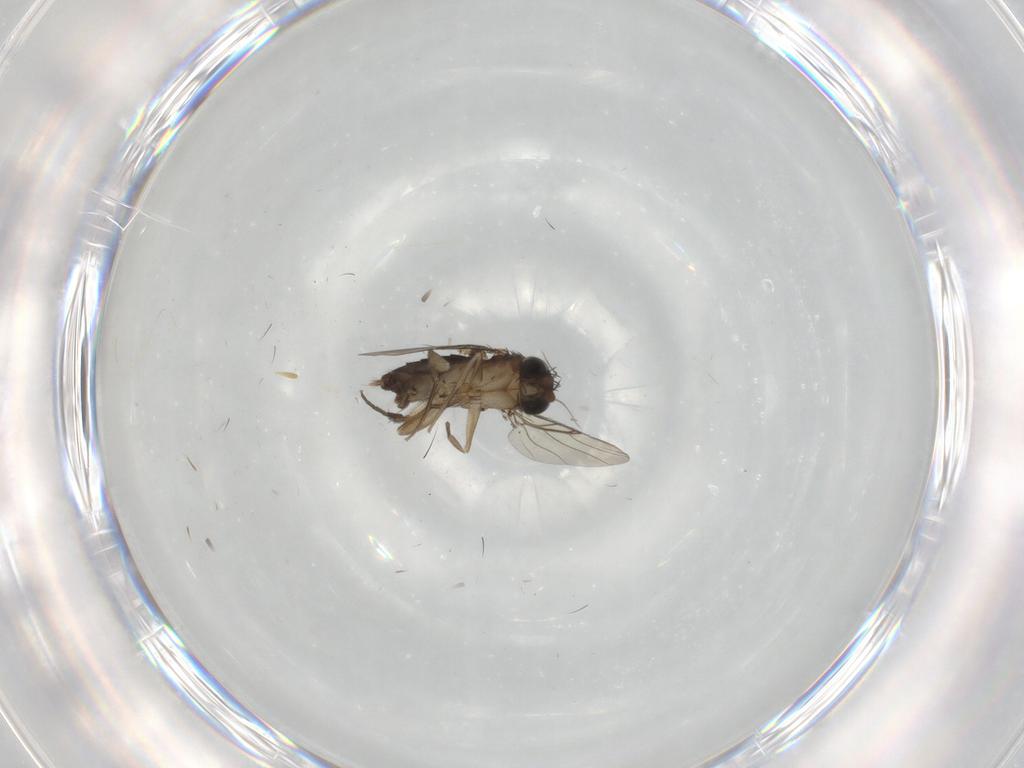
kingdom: Animalia
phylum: Arthropoda
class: Insecta
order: Diptera
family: Phoridae
